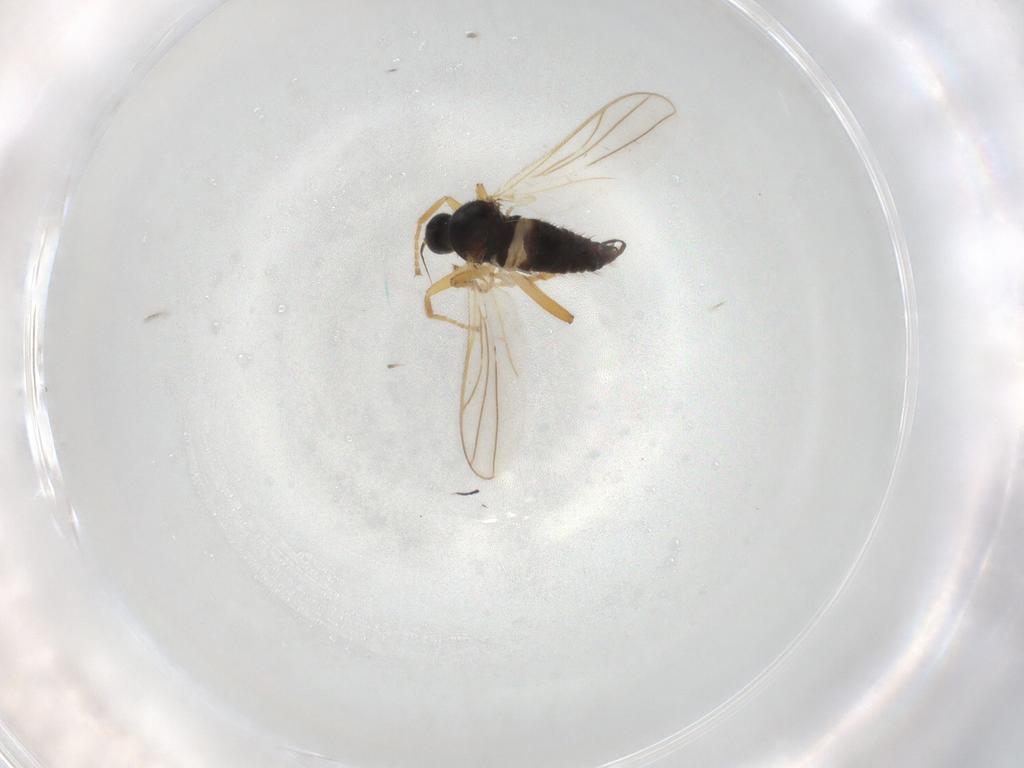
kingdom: Animalia
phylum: Arthropoda
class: Insecta
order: Diptera
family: Hybotidae
